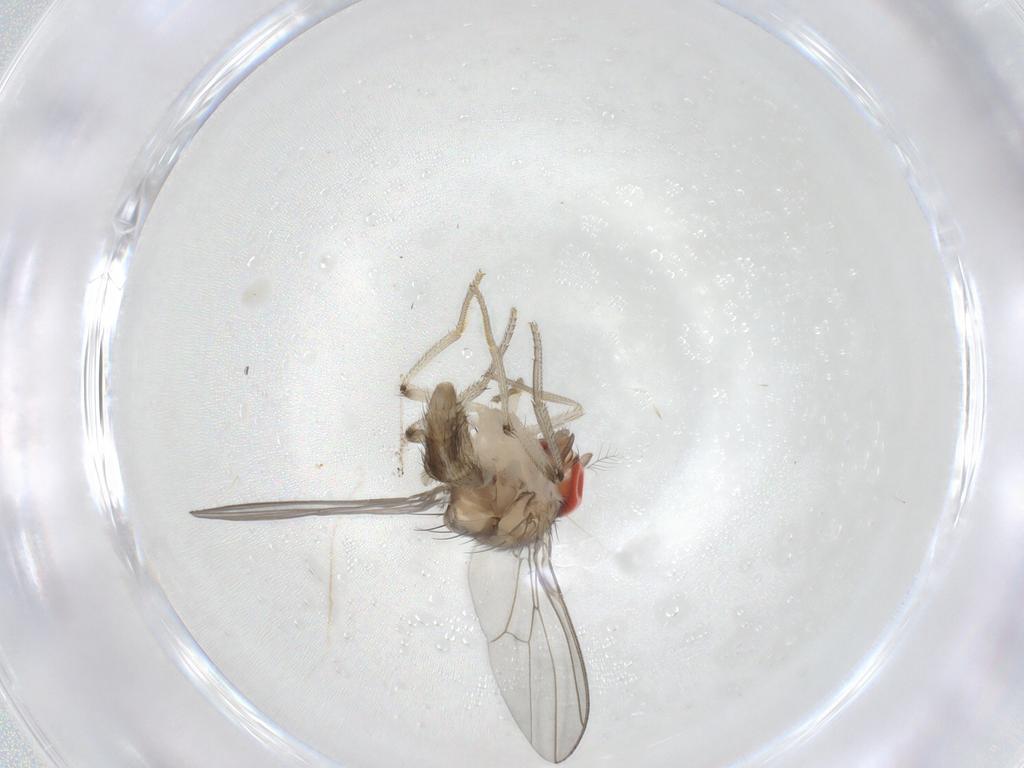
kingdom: Animalia
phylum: Arthropoda
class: Insecta
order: Diptera
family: Drosophilidae
